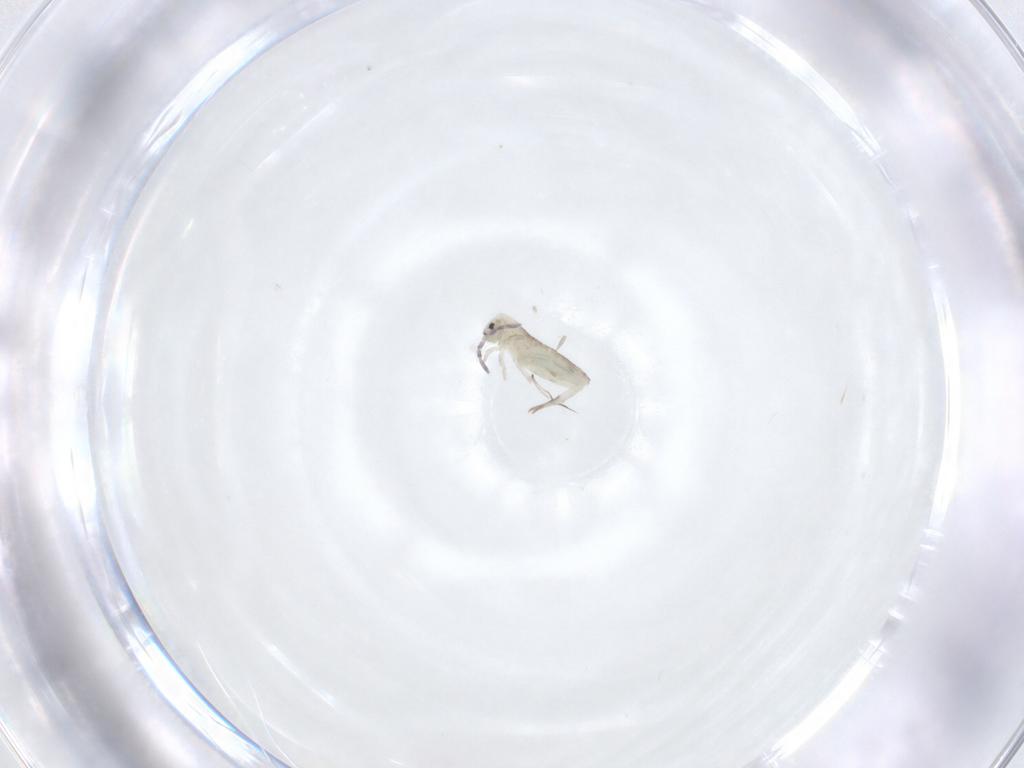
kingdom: Animalia
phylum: Arthropoda
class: Collembola
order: Entomobryomorpha
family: Entomobryidae
